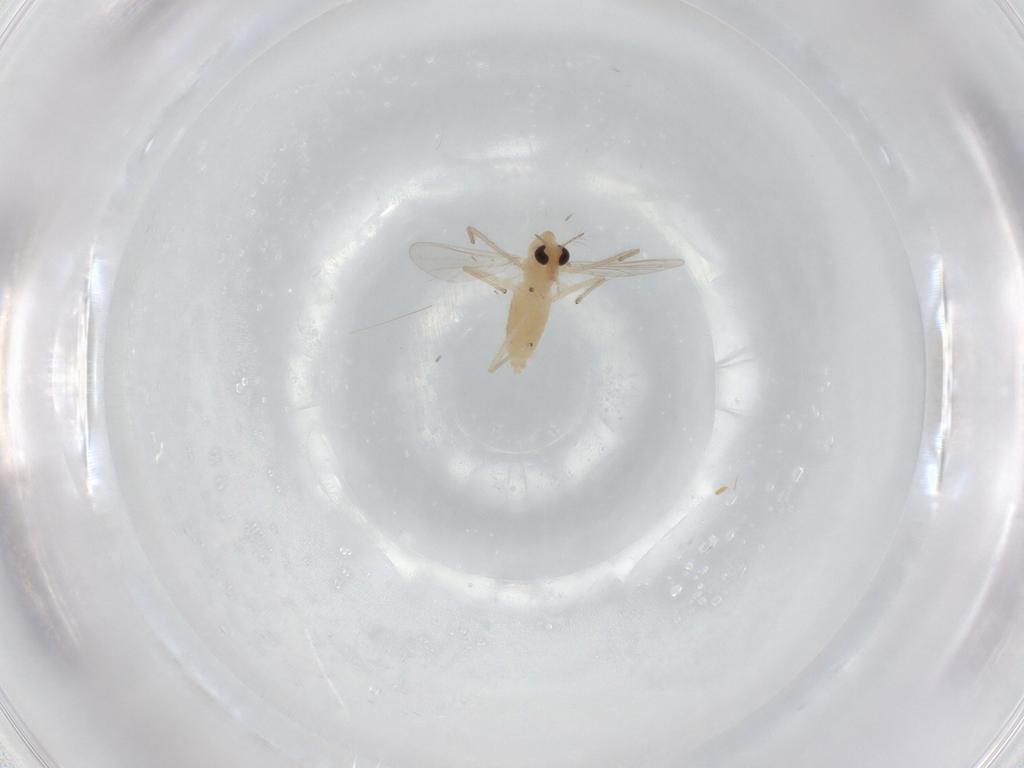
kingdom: Animalia
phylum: Arthropoda
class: Insecta
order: Diptera
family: Chironomidae
